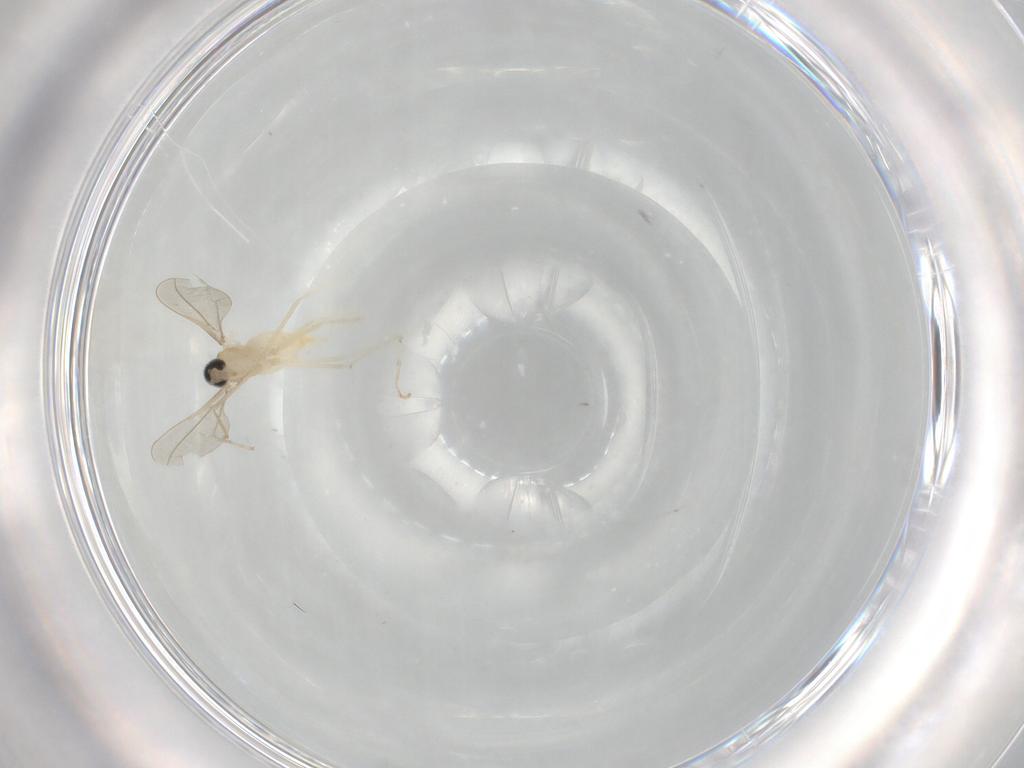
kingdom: Animalia
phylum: Arthropoda
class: Insecta
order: Diptera
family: Cecidomyiidae
